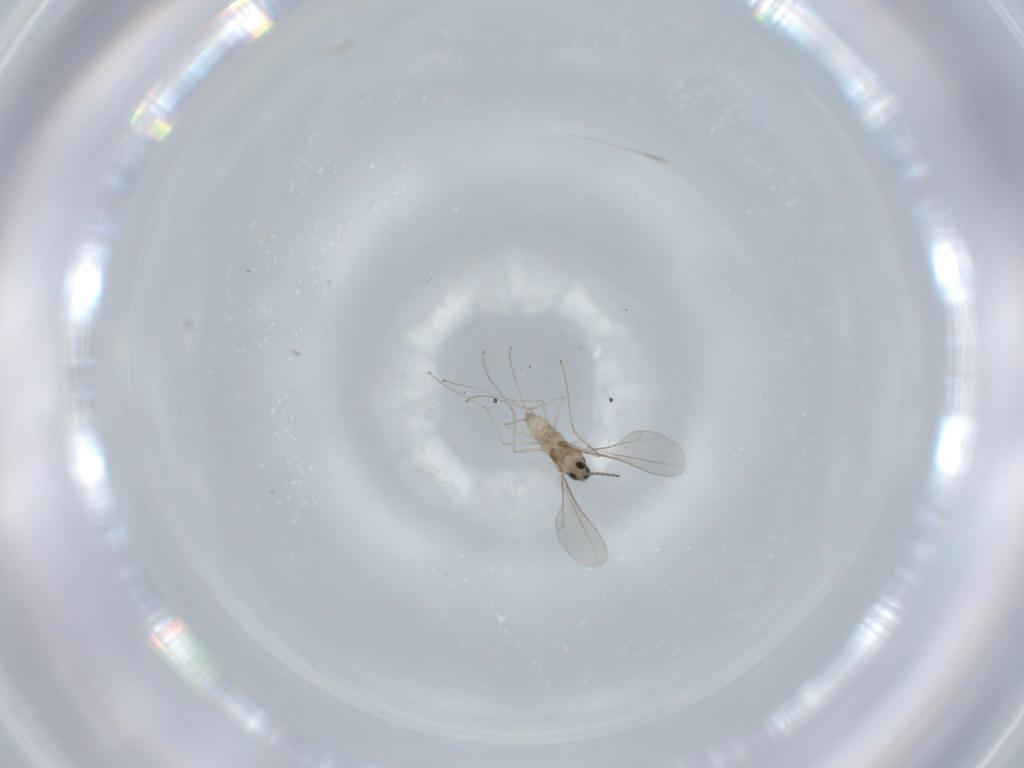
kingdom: Animalia
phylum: Arthropoda
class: Insecta
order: Diptera
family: Cecidomyiidae
